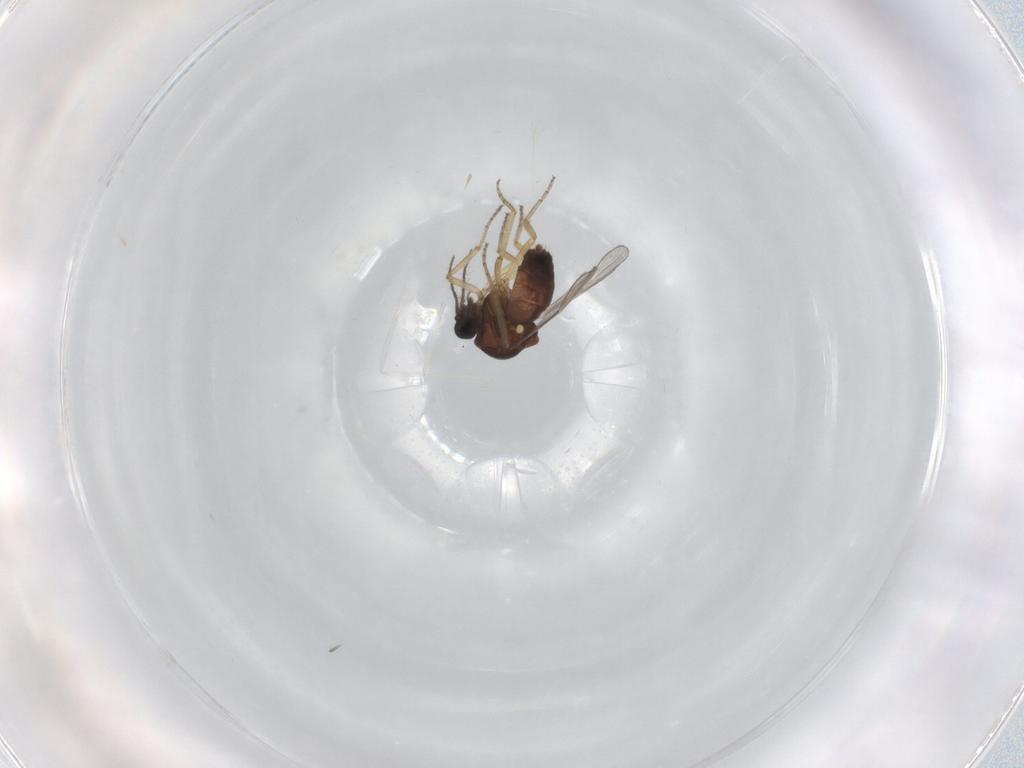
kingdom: Animalia
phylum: Arthropoda
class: Insecta
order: Diptera
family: Ceratopogonidae
